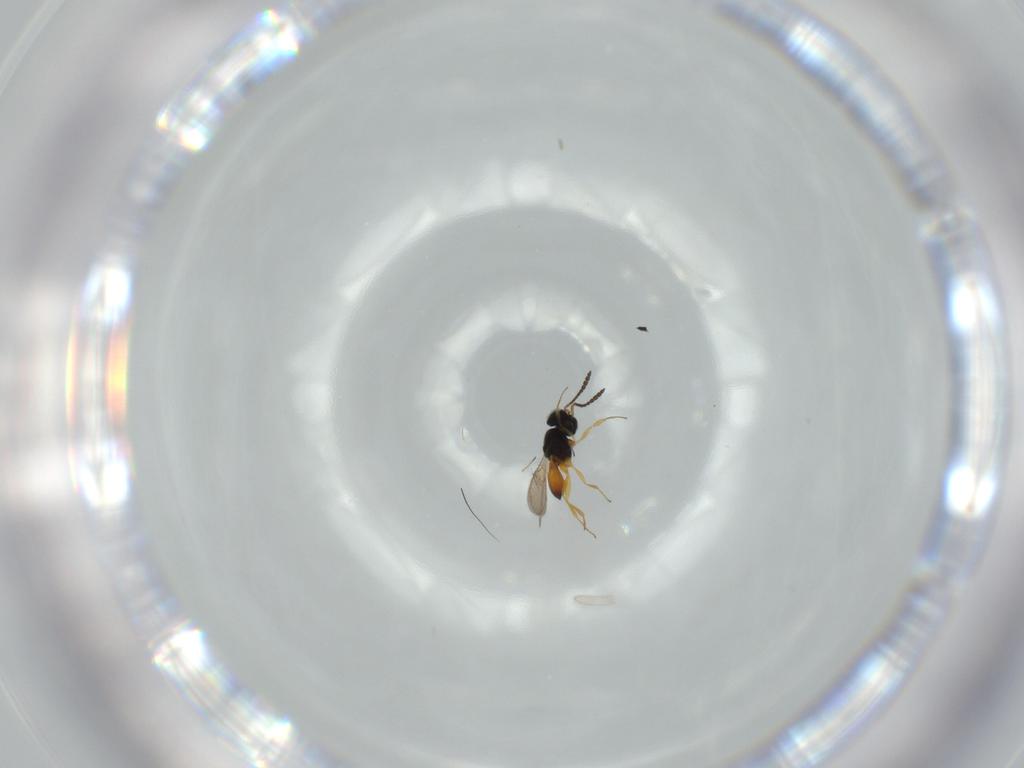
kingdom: Animalia
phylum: Arthropoda
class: Insecta
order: Hymenoptera
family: Scelionidae
